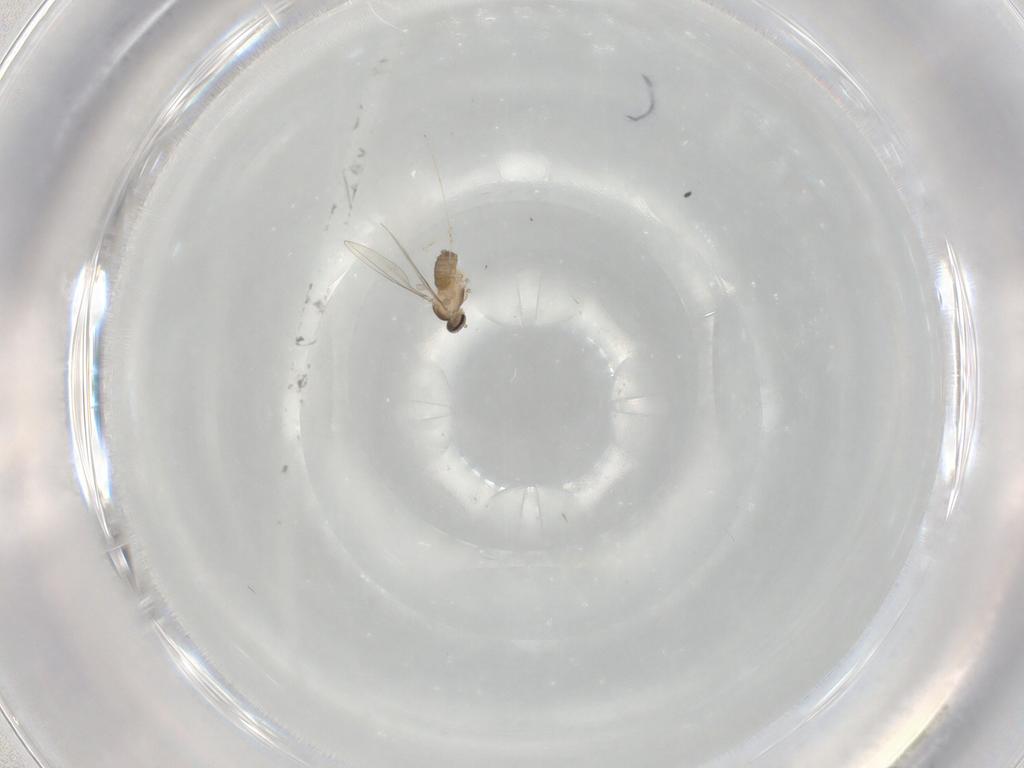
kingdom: Animalia
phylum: Arthropoda
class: Insecta
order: Diptera
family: Cecidomyiidae
